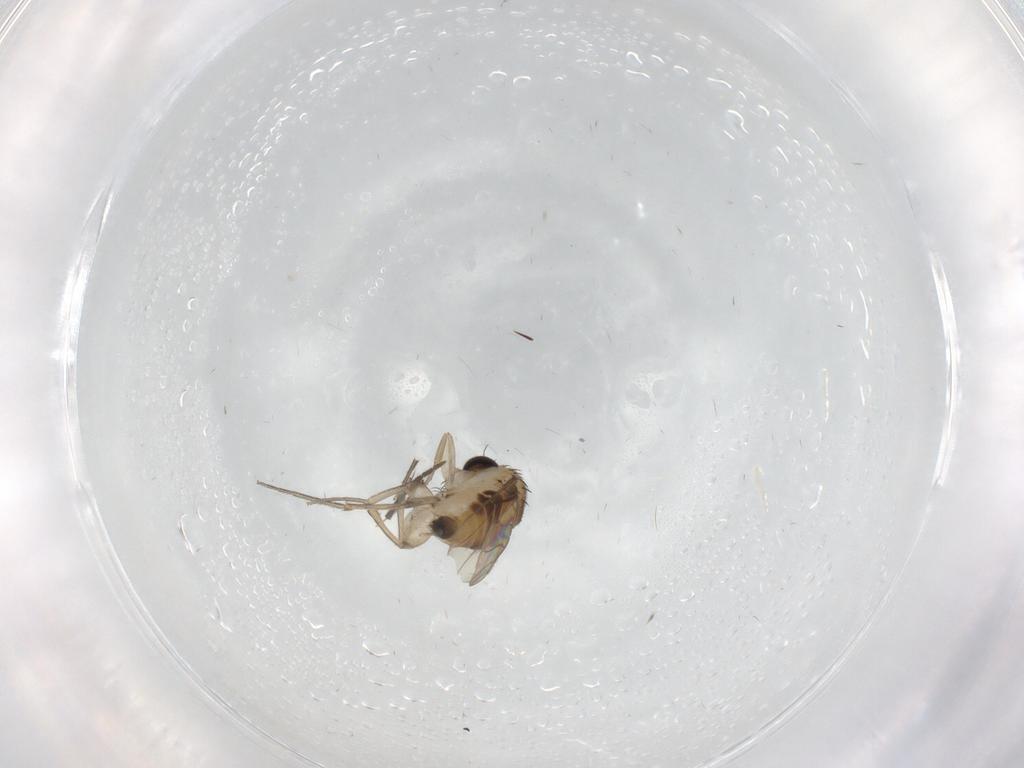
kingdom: Animalia
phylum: Arthropoda
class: Insecta
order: Diptera
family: Phoridae
